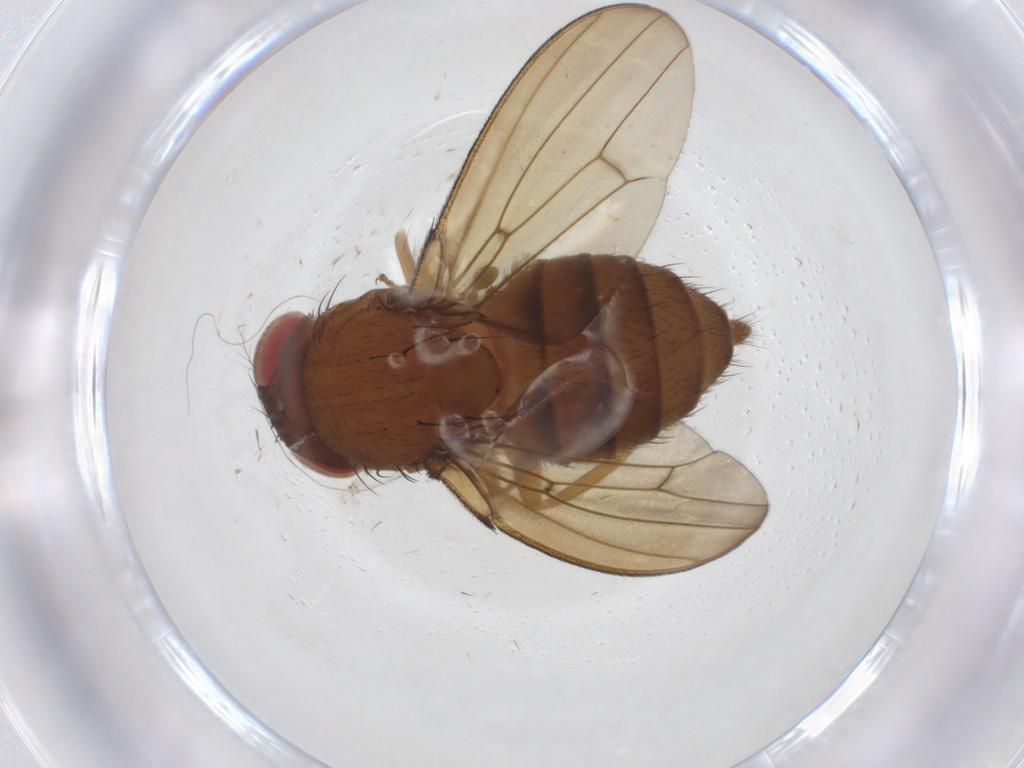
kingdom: Animalia
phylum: Arthropoda
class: Insecta
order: Diptera
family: Drosophilidae
